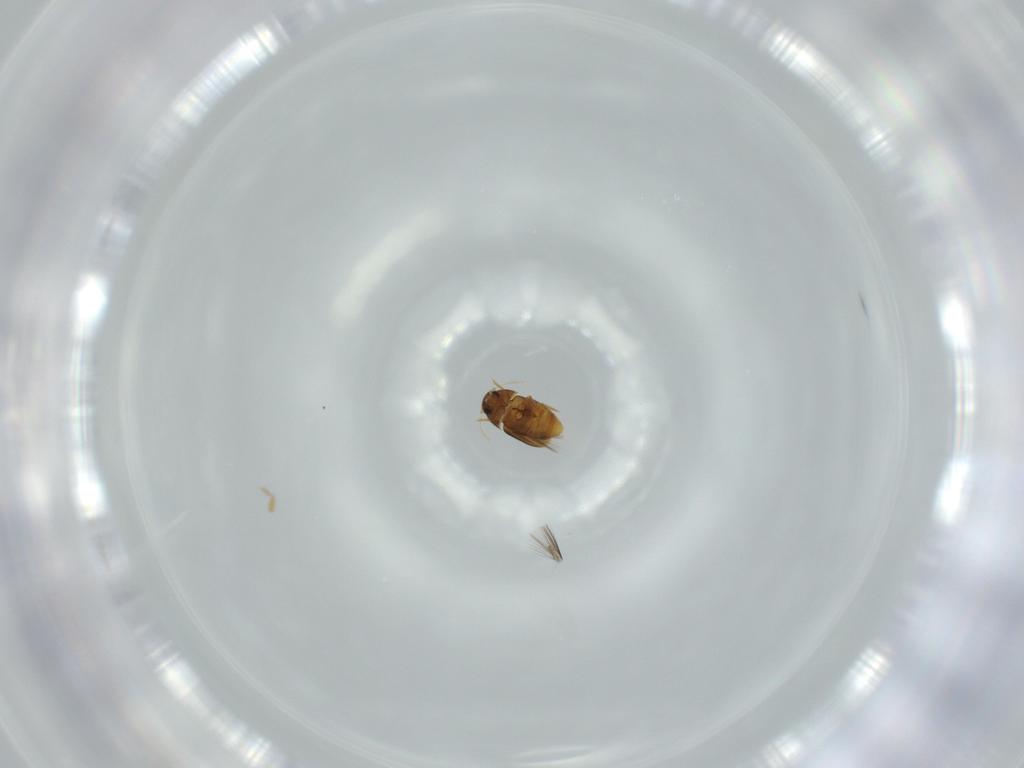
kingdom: Animalia
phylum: Arthropoda
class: Insecta
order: Coleoptera
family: Ptiliidae
